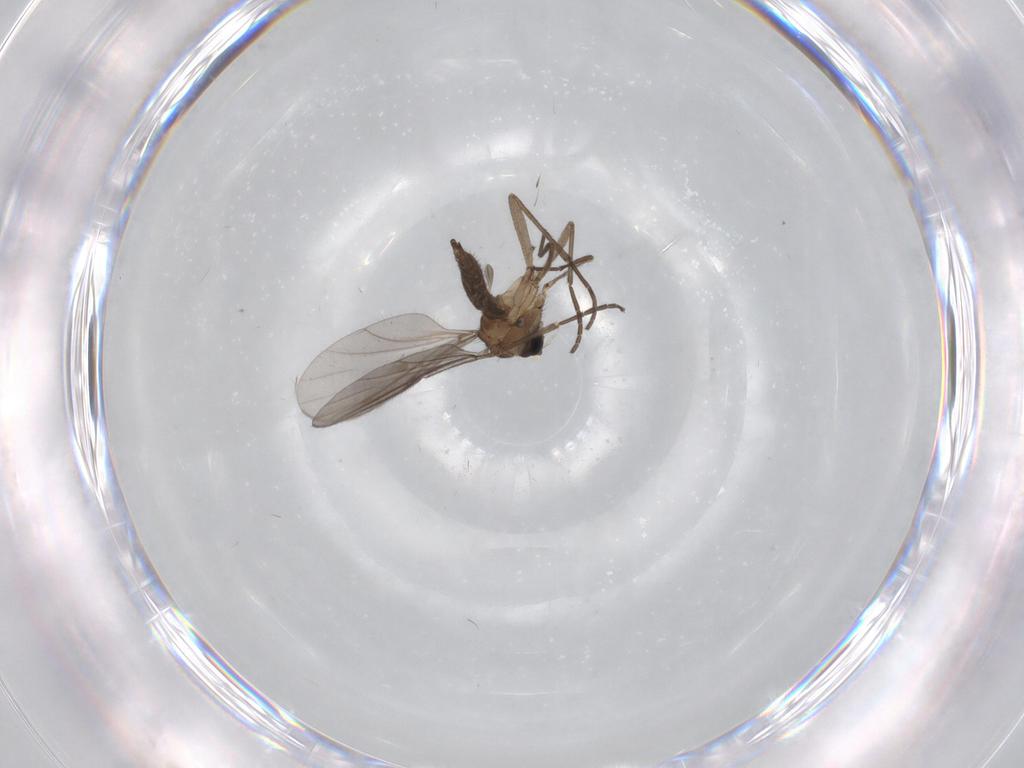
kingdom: Animalia
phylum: Arthropoda
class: Insecta
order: Diptera
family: Sciaridae
